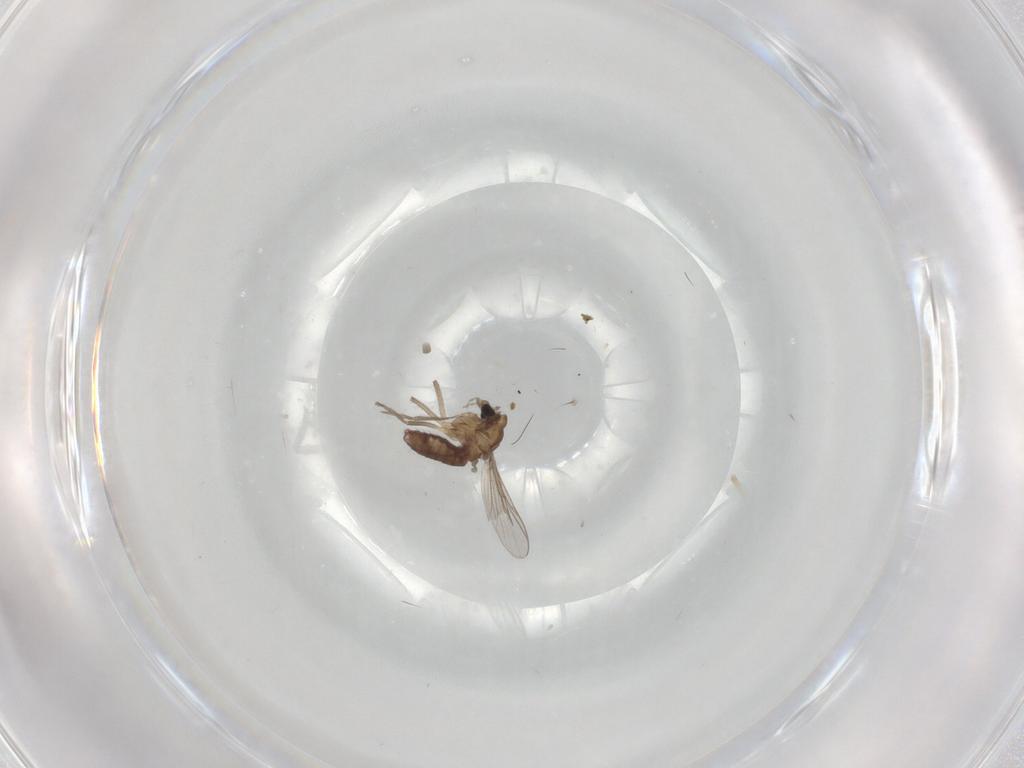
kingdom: Animalia
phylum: Arthropoda
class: Insecta
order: Diptera
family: Chironomidae
